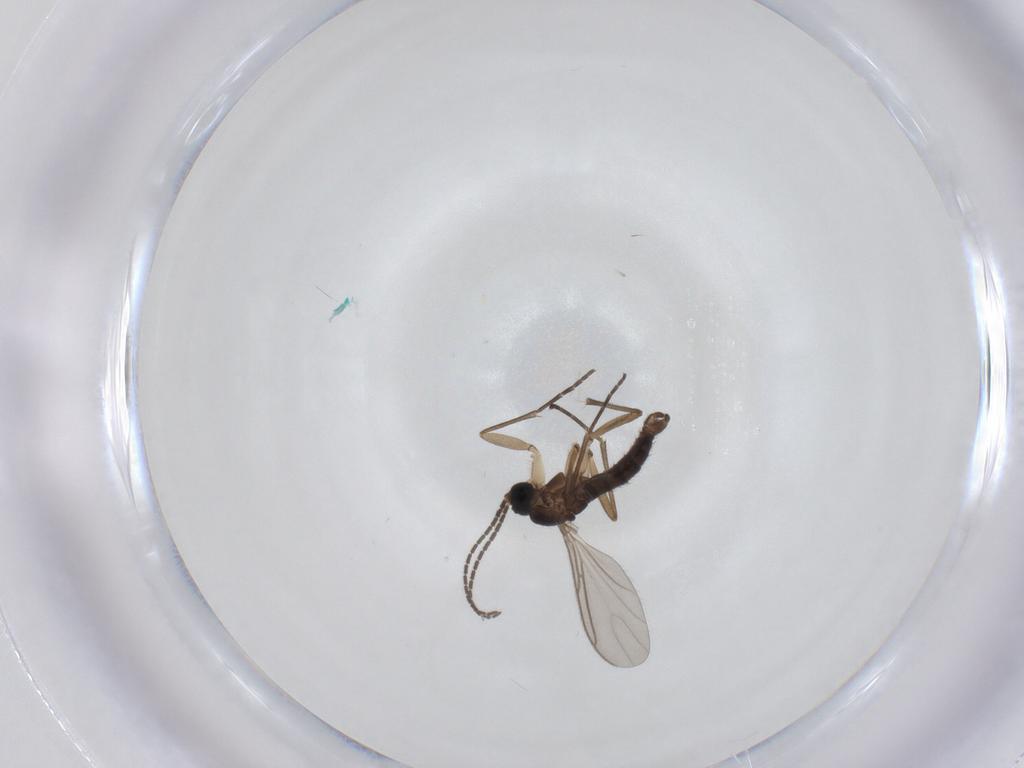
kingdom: Animalia
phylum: Arthropoda
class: Insecta
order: Diptera
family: Sciaridae
